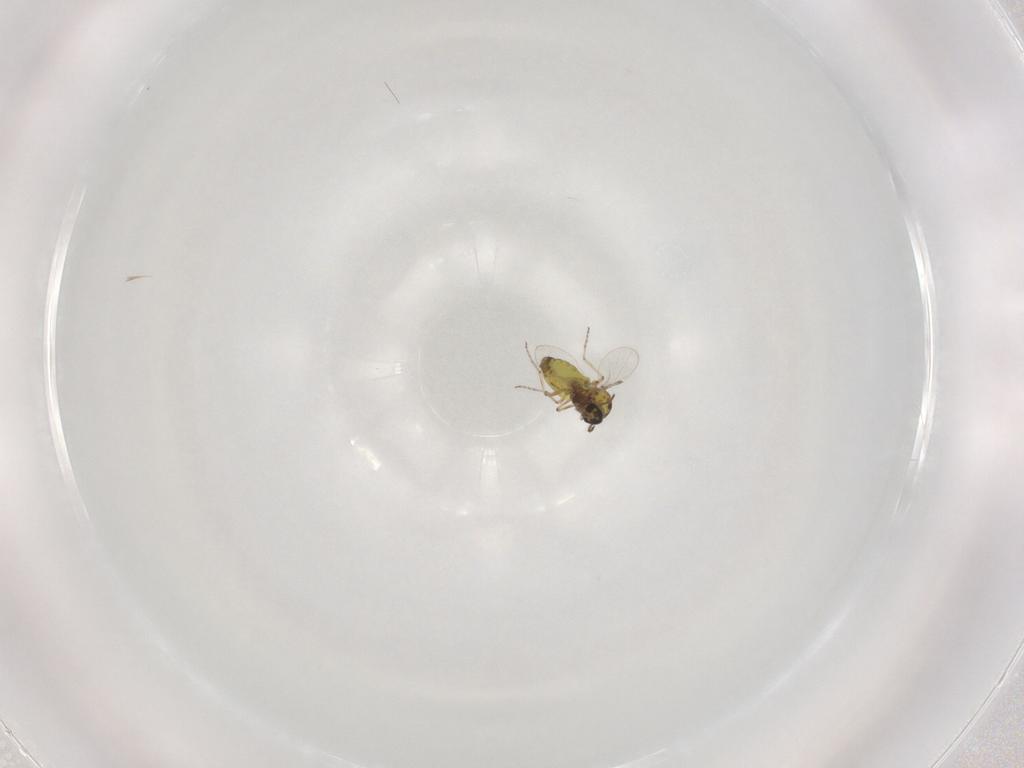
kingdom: Animalia
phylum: Arthropoda
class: Insecta
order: Diptera
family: Ceratopogonidae
